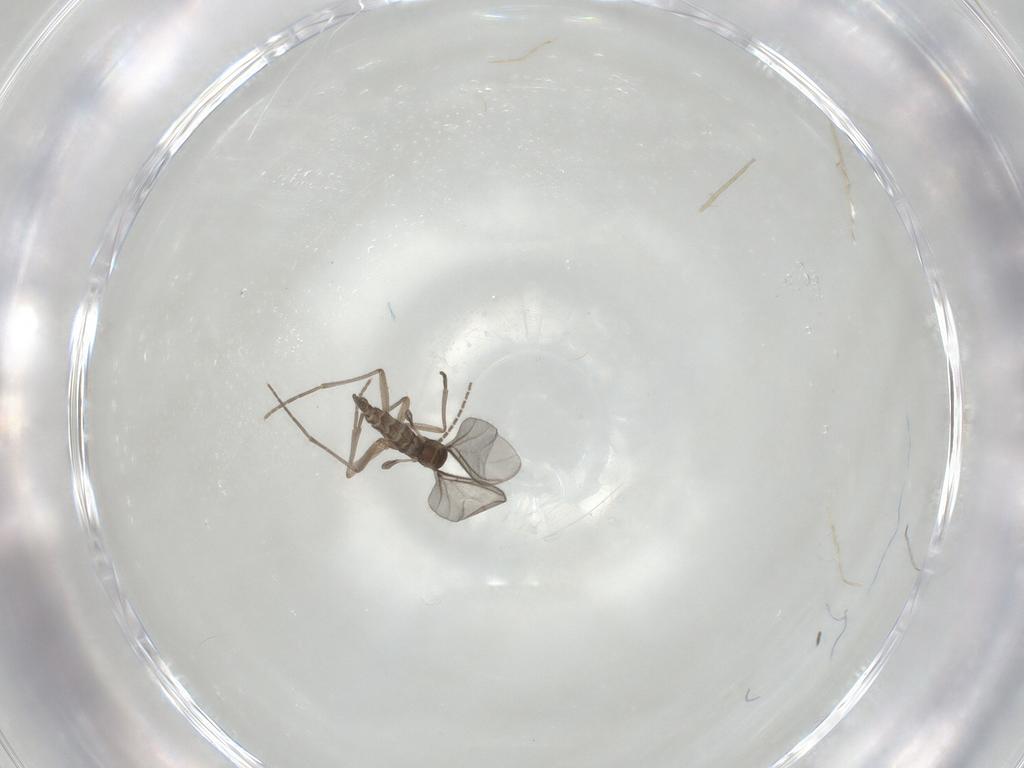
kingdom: Animalia
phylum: Arthropoda
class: Insecta
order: Diptera
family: Sciaridae
